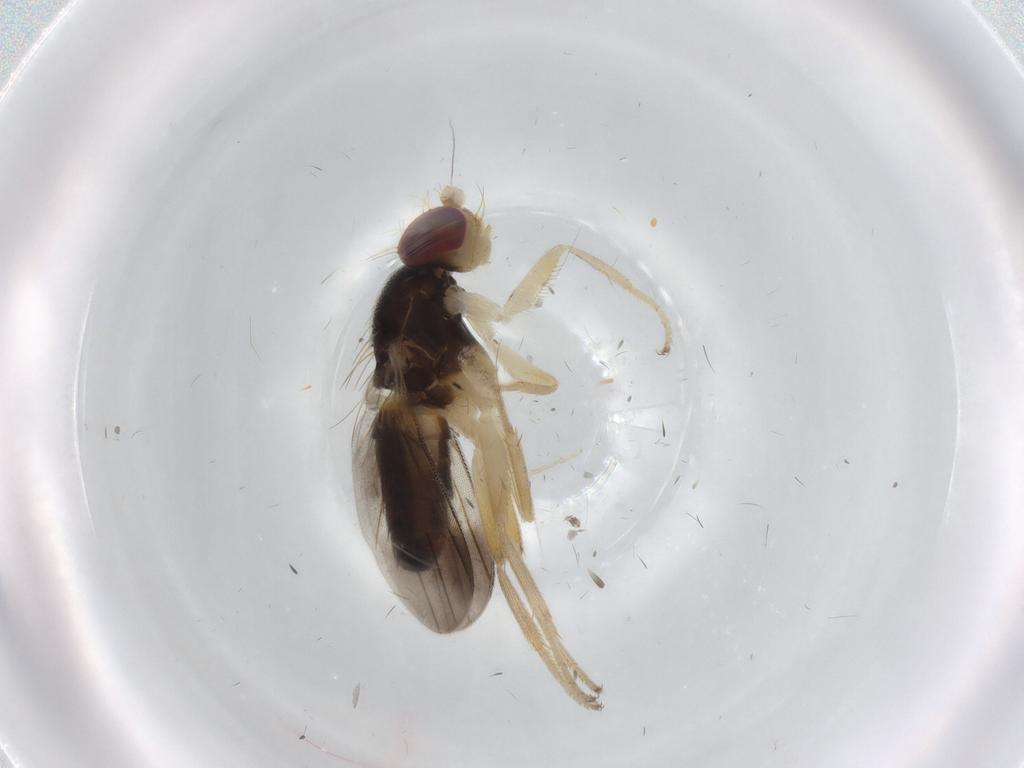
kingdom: Animalia
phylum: Arthropoda
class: Insecta
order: Diptera
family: Clusiidae
